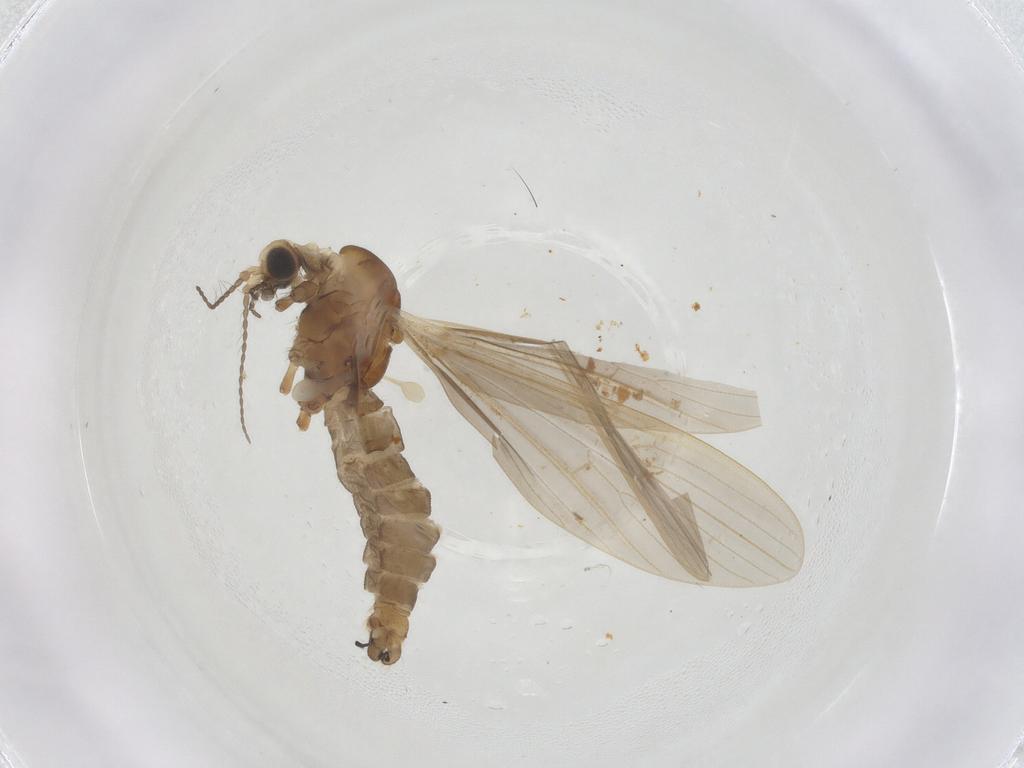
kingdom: Animalia
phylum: Arthropoda
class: Insecta
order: Diptera
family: Limoniidae
